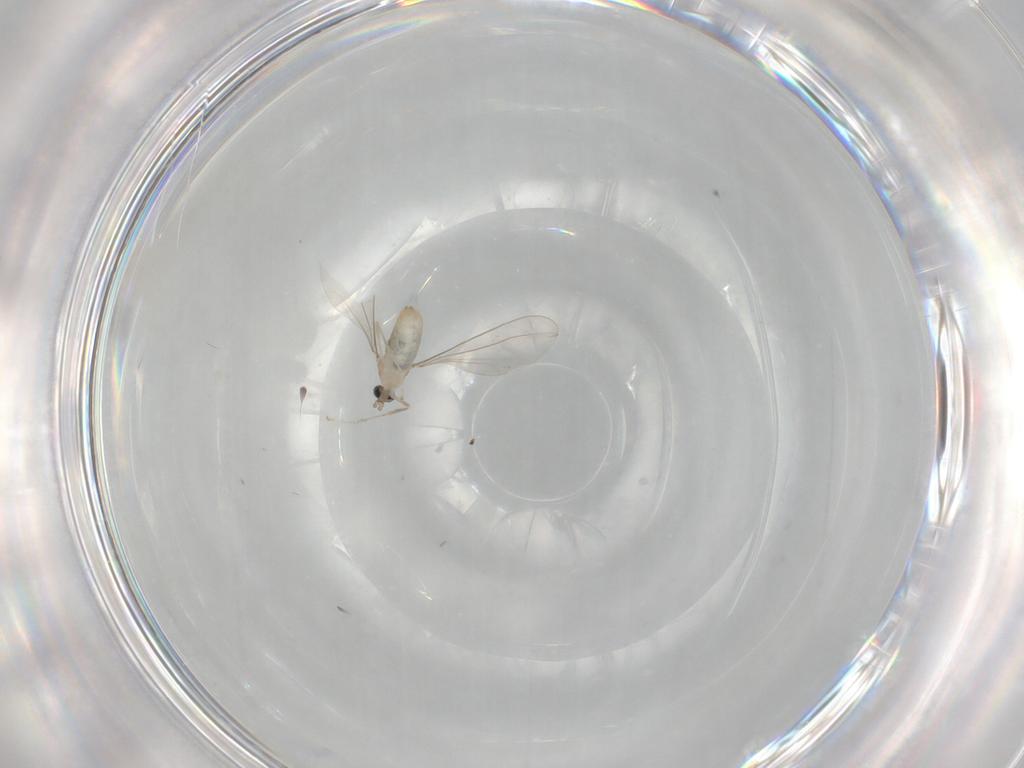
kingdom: Animalia
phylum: Arthropoda
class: Insecta
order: Diptera
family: Cecidomyiidae
